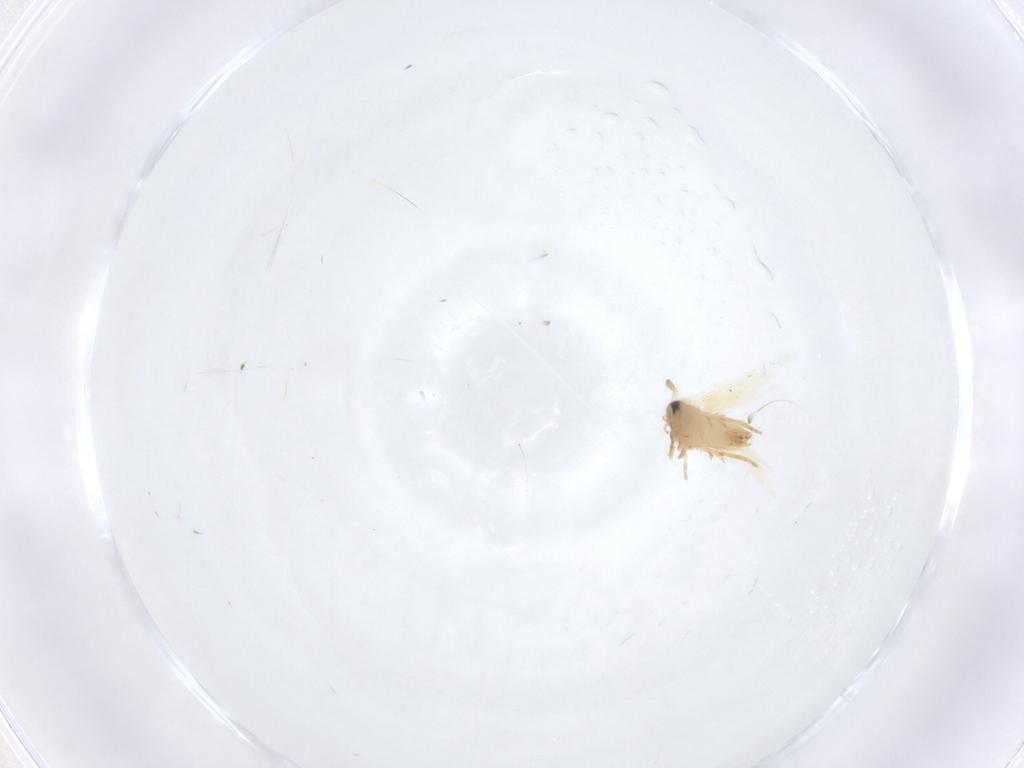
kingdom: Animalia
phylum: Arthropoda
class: Insecta
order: Lepidoptera
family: Crambidae
